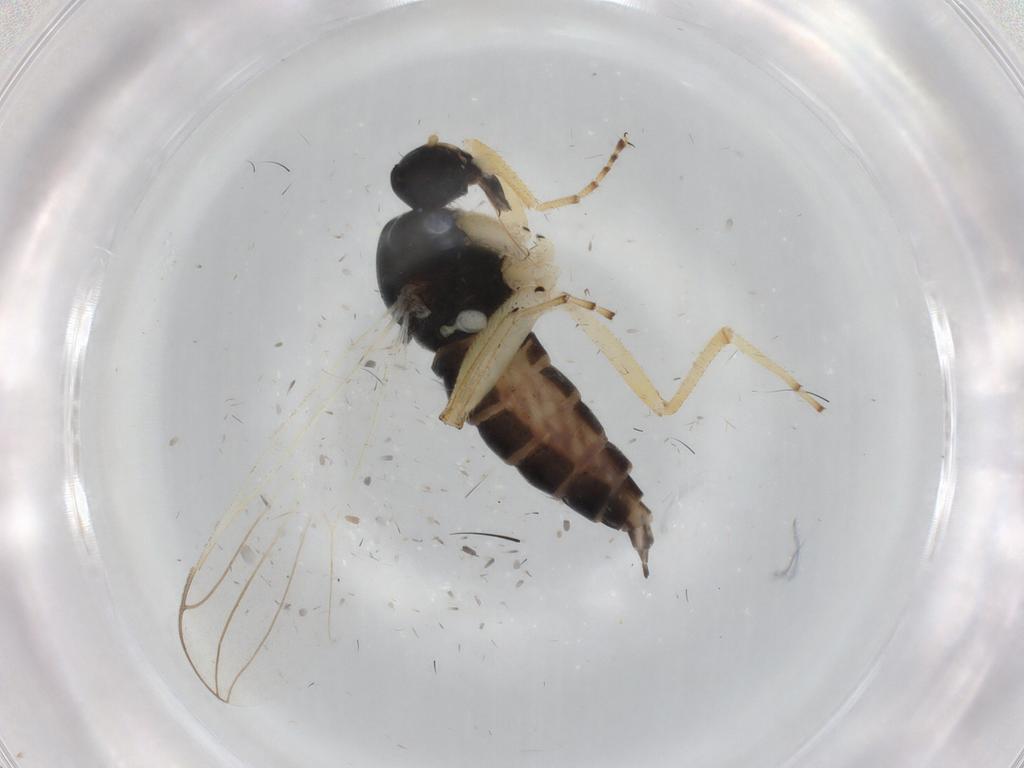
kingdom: Animalia
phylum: Arthropoda
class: Insecta
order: Diptera
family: Hybotidae
